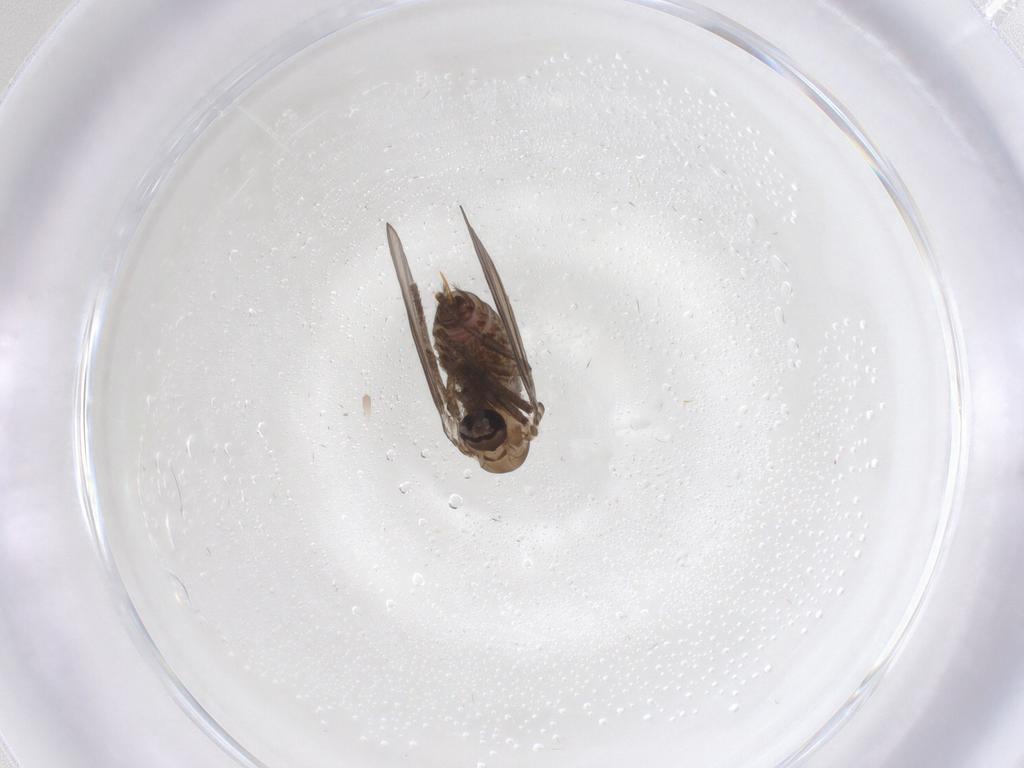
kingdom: Animalia
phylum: Arthropoda
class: Insecta
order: Diptera
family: Psychodidae
